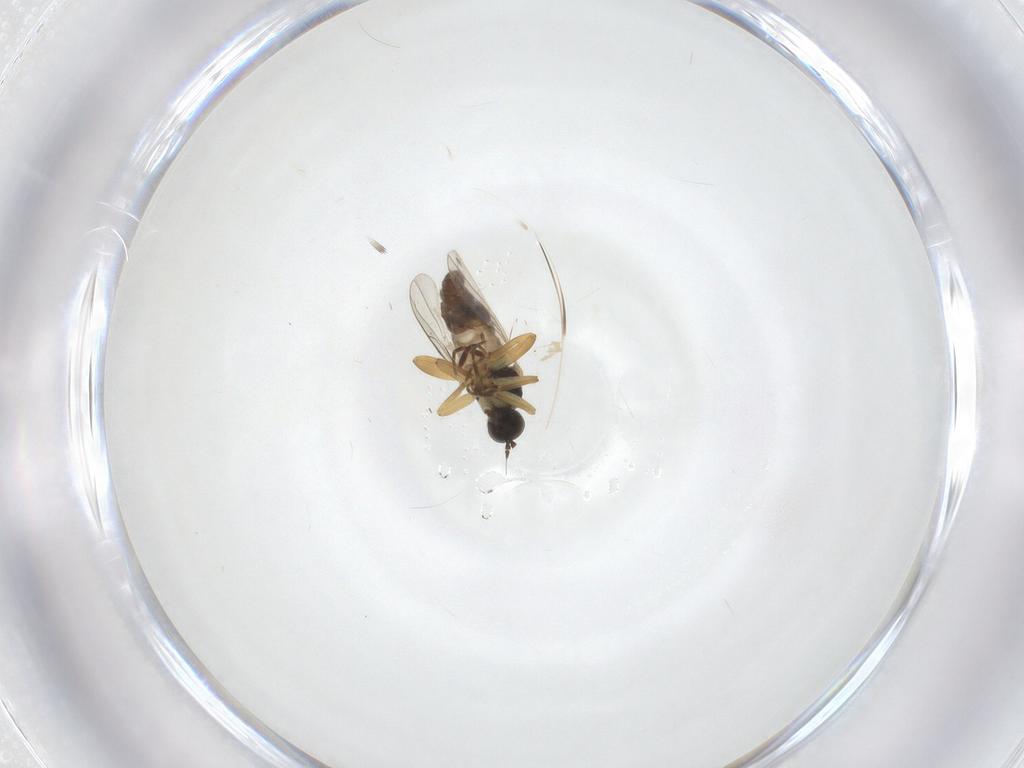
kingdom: Animalia
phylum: Arthropoda
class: Insecta
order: Diptera
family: Hybotidae
